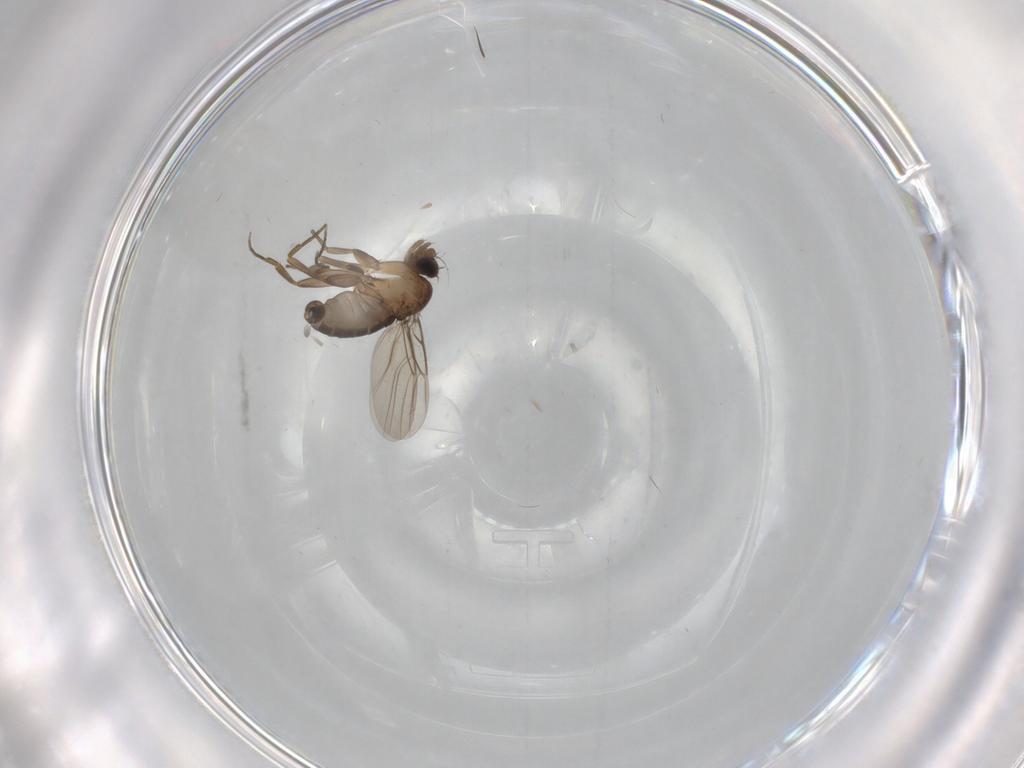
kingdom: Animalia
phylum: Arthropoda
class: Insecta
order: Diptera
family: Phoridae
